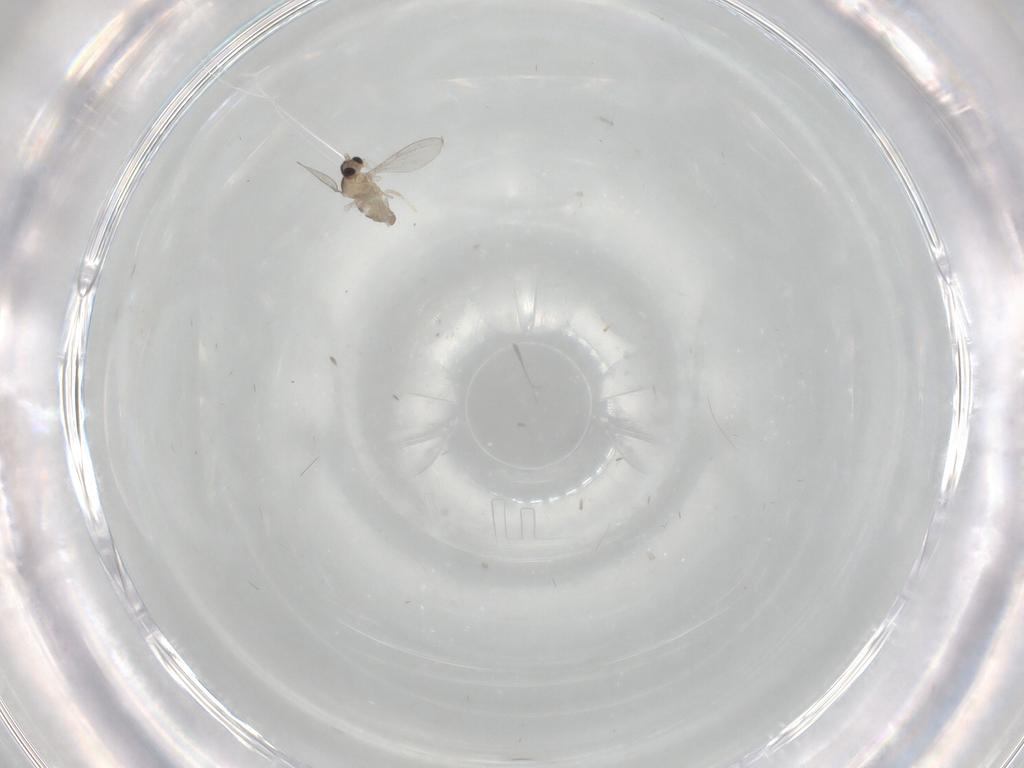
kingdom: Animalia
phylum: Arthropoda
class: Insecta
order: Diptera
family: Cecidomyiidae
